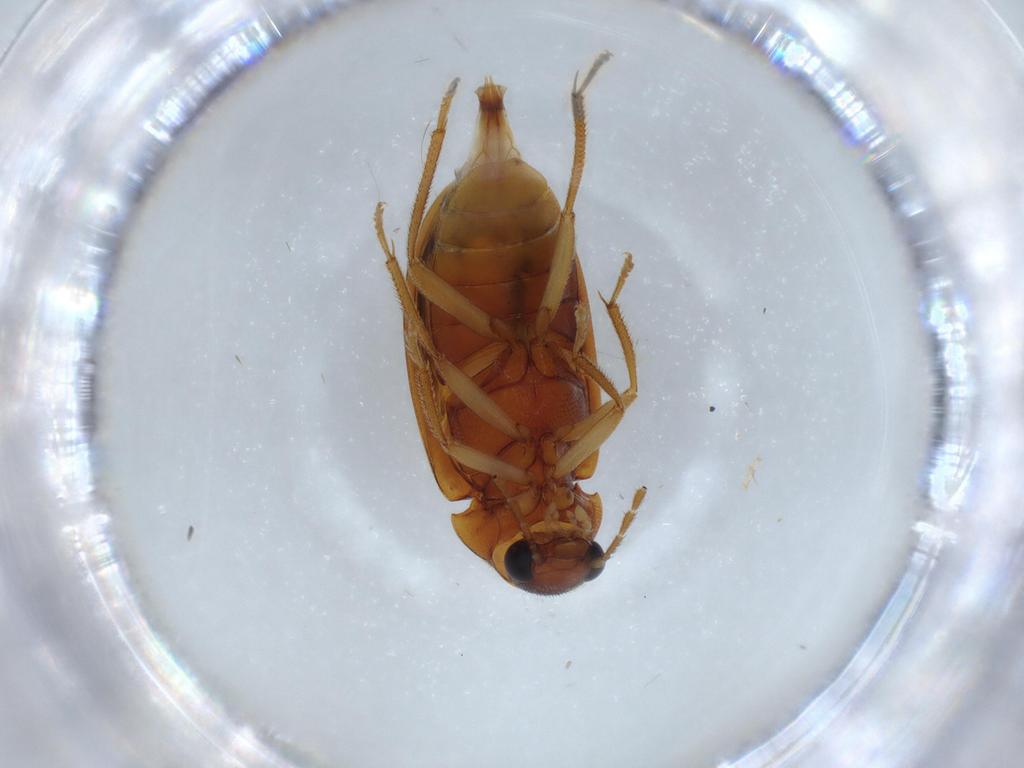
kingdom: Animalia
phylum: Arthropoda
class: Insecta
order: Coleoptera
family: Ptilodactylidae
